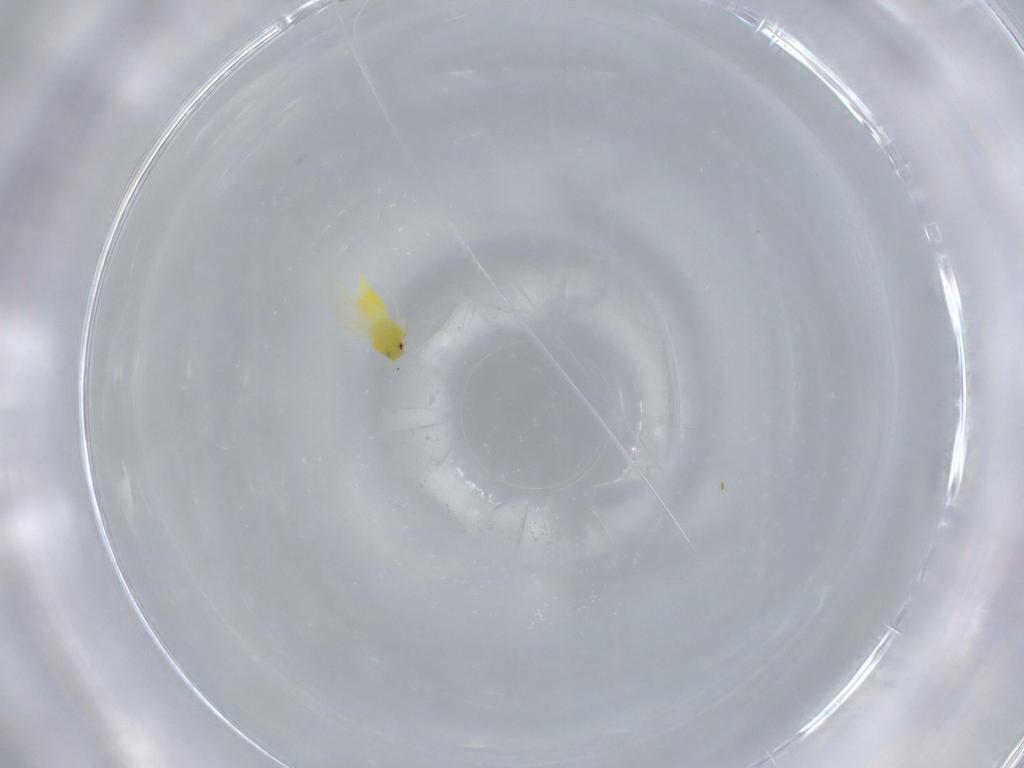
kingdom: Animalia
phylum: Arthropoda
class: Insecta
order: Hemiptera
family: Aleyrodidae
